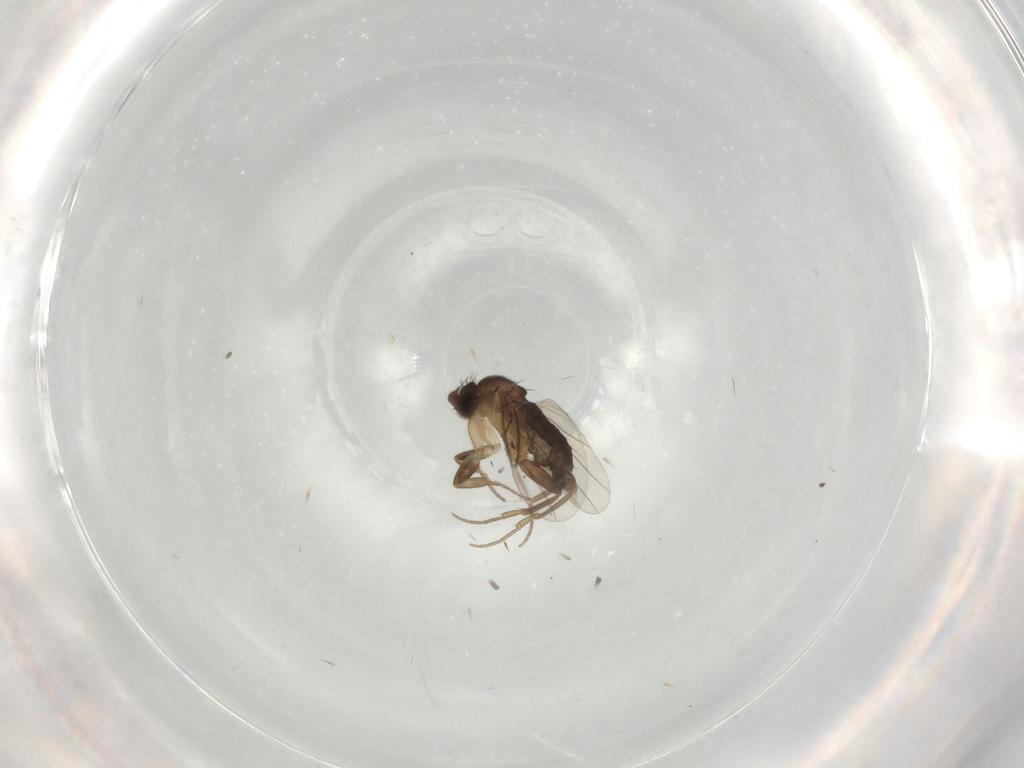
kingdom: Animalia
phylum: Arthropoda
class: Insecta
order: Diptera
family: Phoridae
